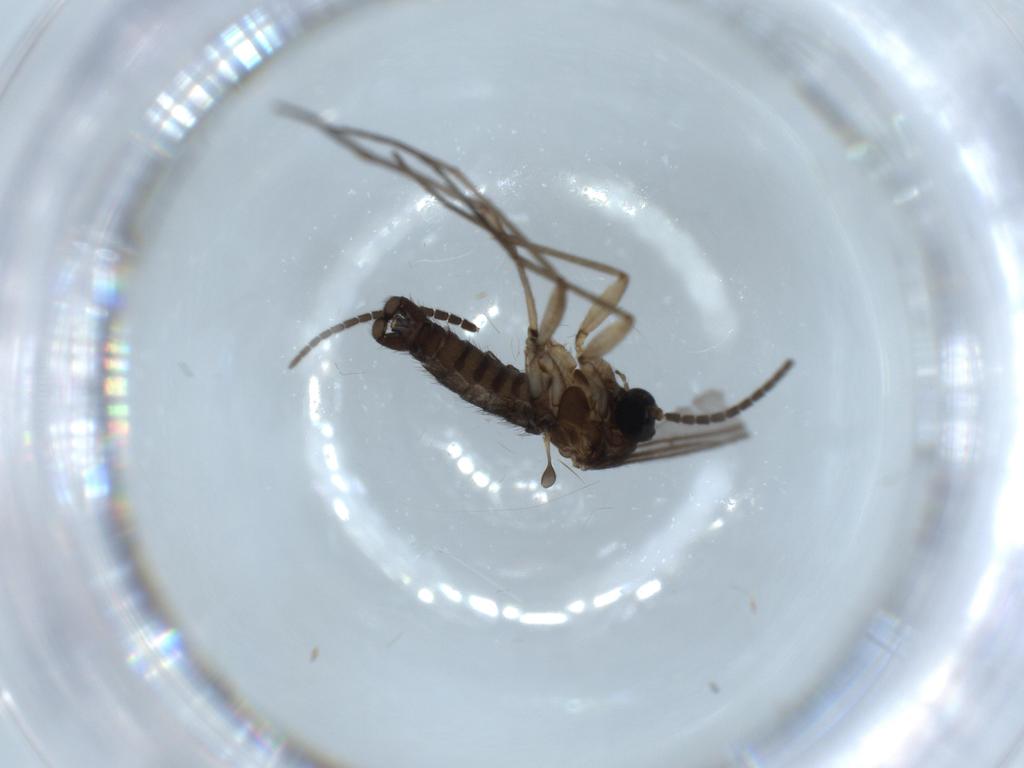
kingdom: Animalia
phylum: Arthropoda
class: Insecta
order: Diptera
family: Sciaridae
